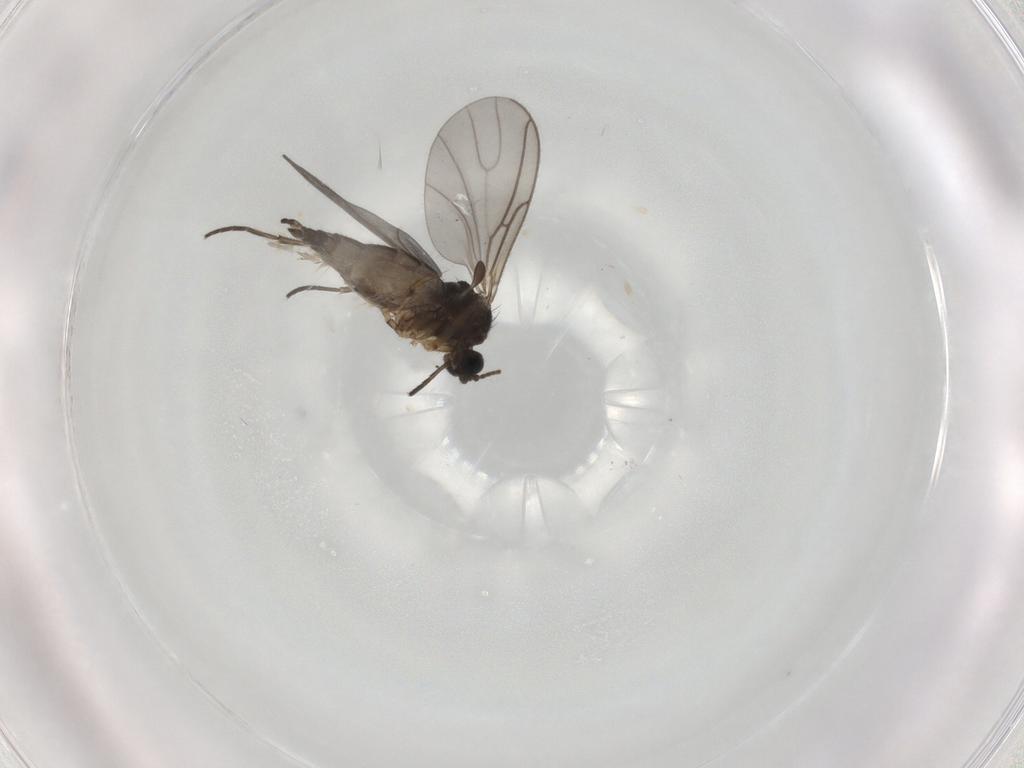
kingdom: Animalia
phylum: Arthropoda
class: Insecta
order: Diptera
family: Sciaridae
